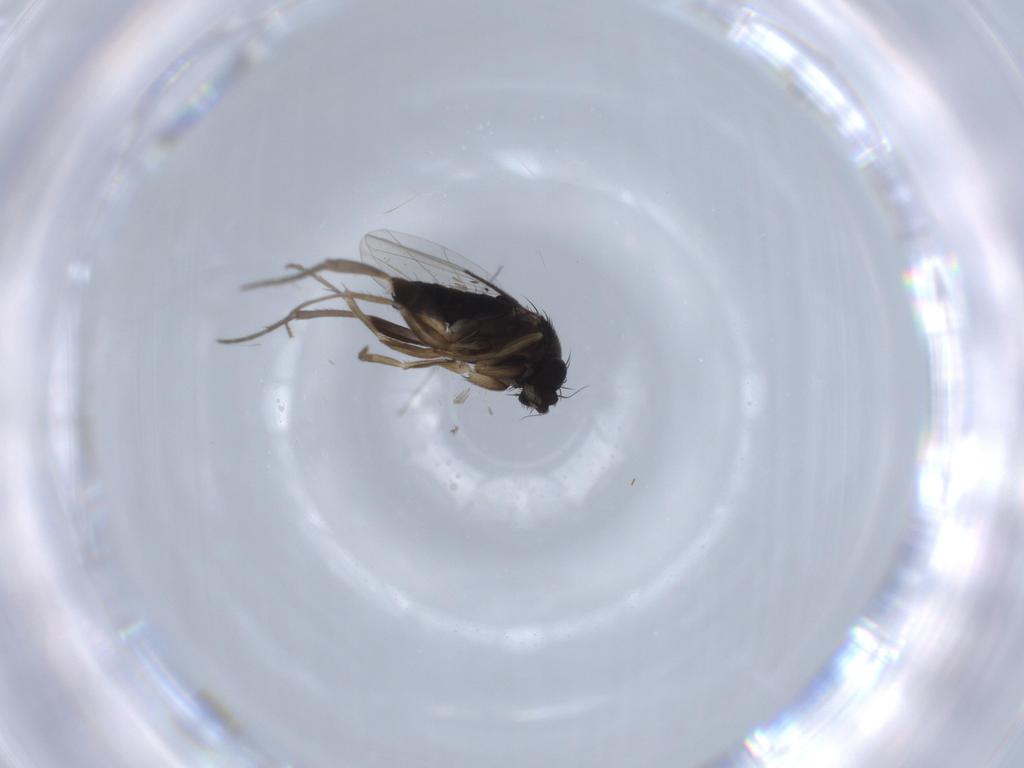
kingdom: Animalia
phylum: Arthropoda
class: Insecta
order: Diptera
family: Phoridae
